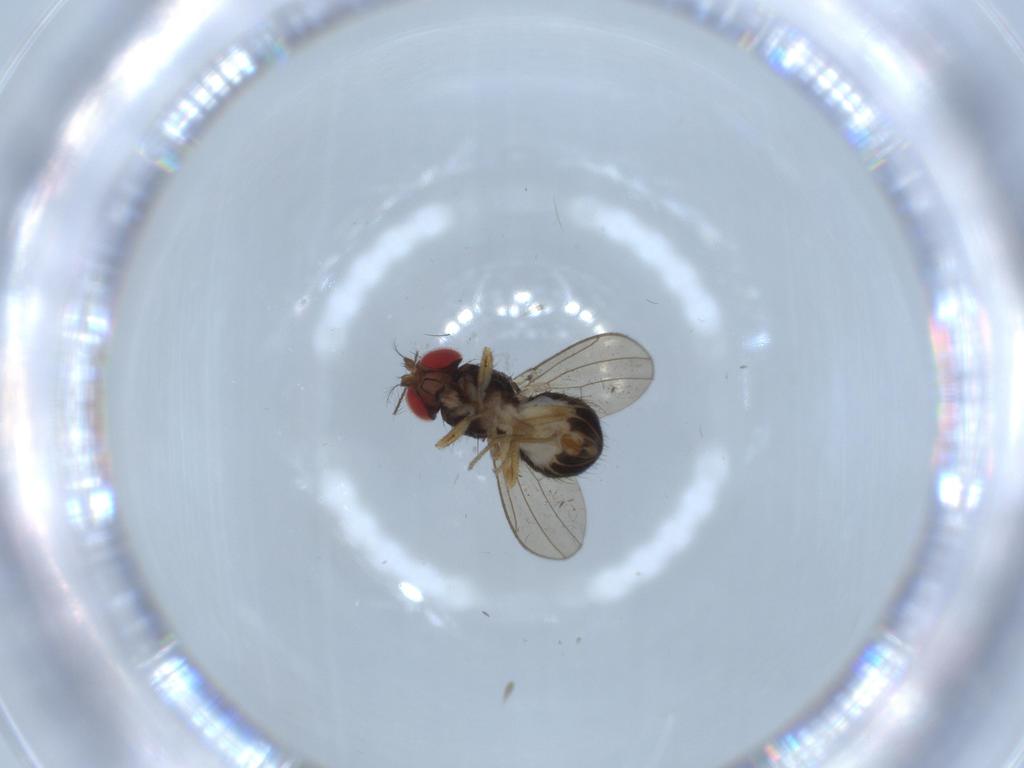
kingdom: Animalia
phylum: Arthropoda
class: Insecta
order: Diptera
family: Drosophilidae
